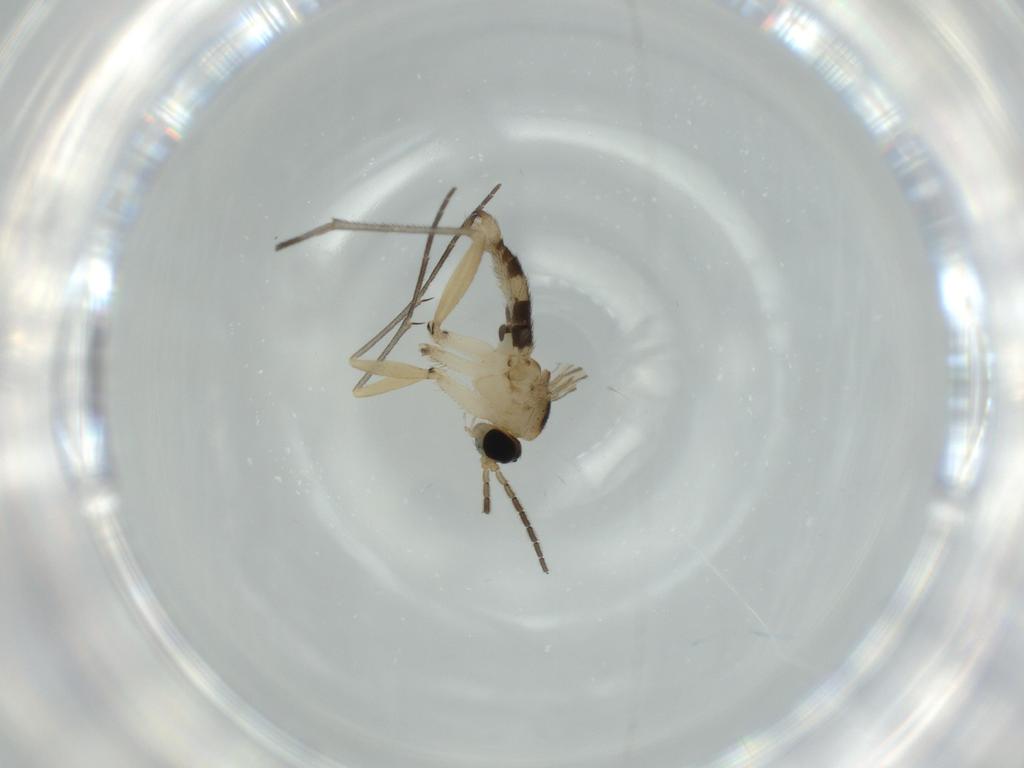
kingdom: Animalia
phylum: Arthropoda
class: Insecta
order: Diptera
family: Sciaridae
